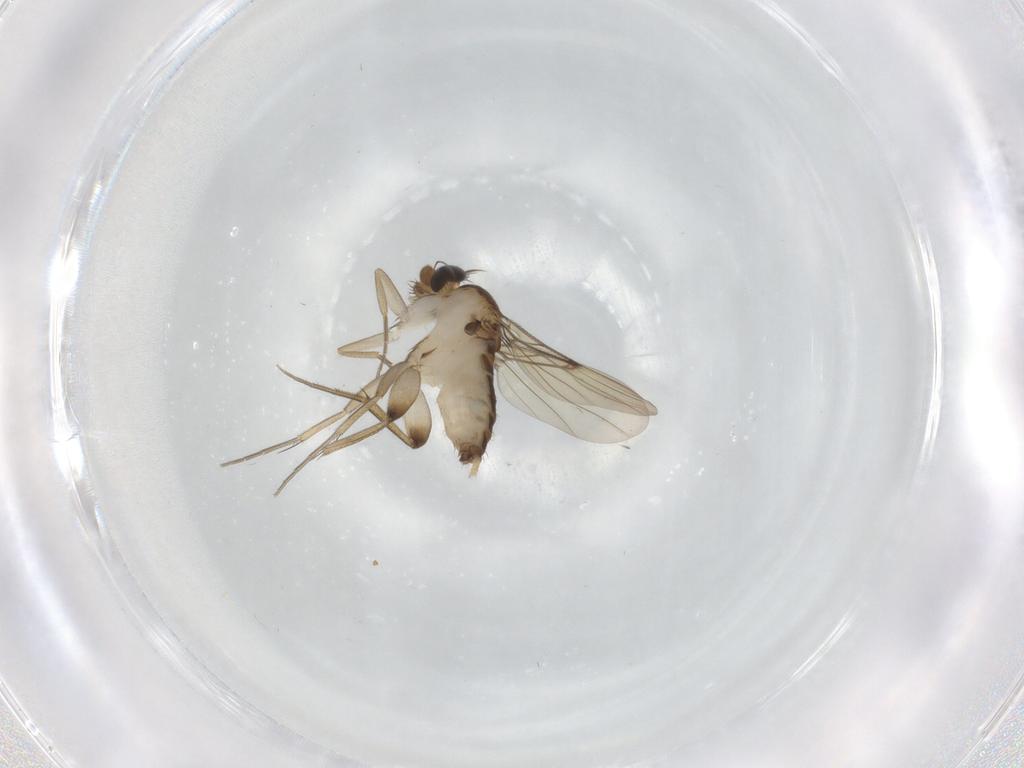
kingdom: Animalia
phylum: Arthropoda
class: Insecta
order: Diptera
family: Phoridae
